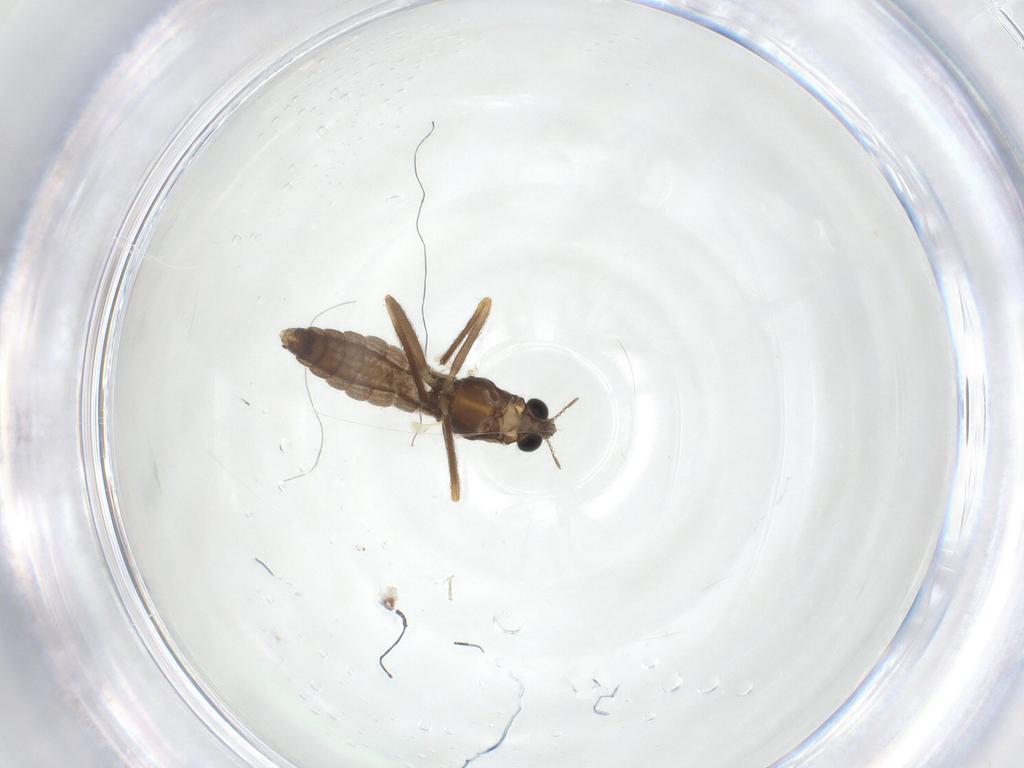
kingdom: Animalia
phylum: Arthropoda
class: Insecta
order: Diptera
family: Chironomidae
